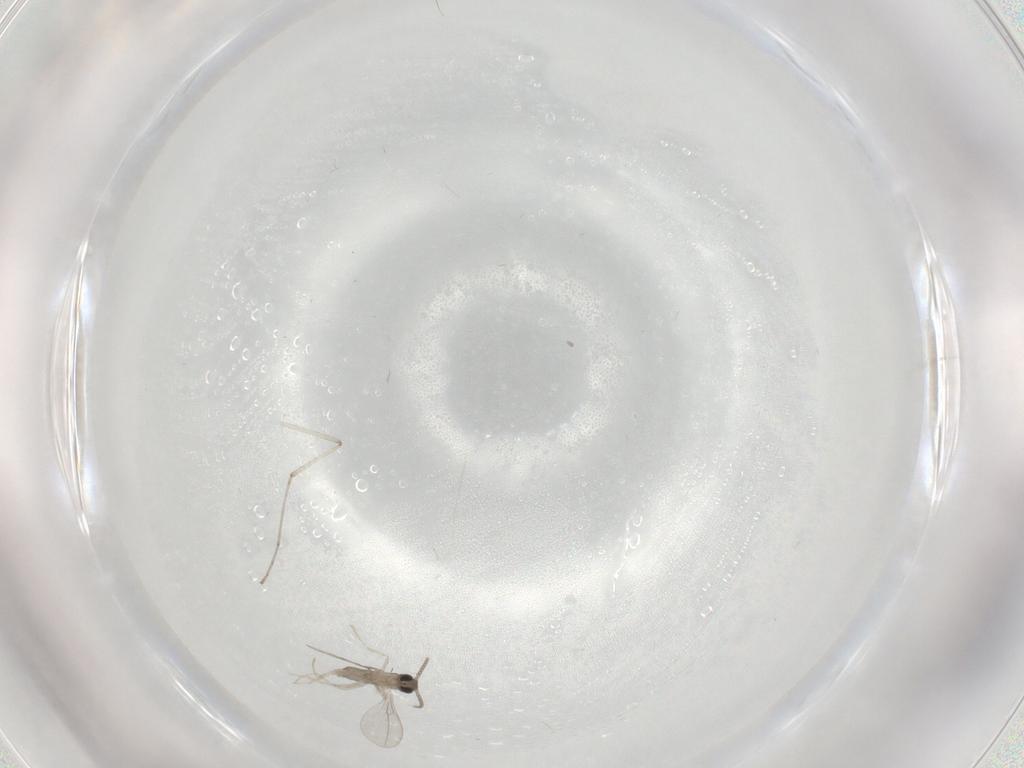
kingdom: Animalia
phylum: Arthropoda
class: Insecta
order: Diptera
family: Cecidomyiidae
